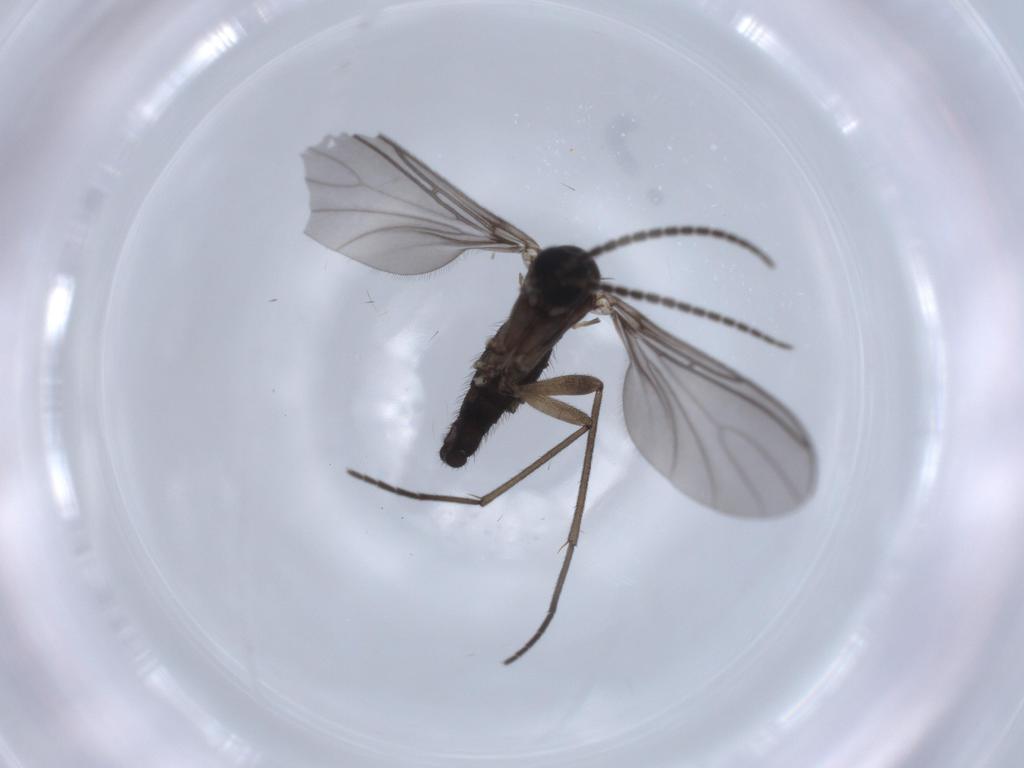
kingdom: Animalia
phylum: Arthropoda
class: Insecta
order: Diptera
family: Sciaridae
